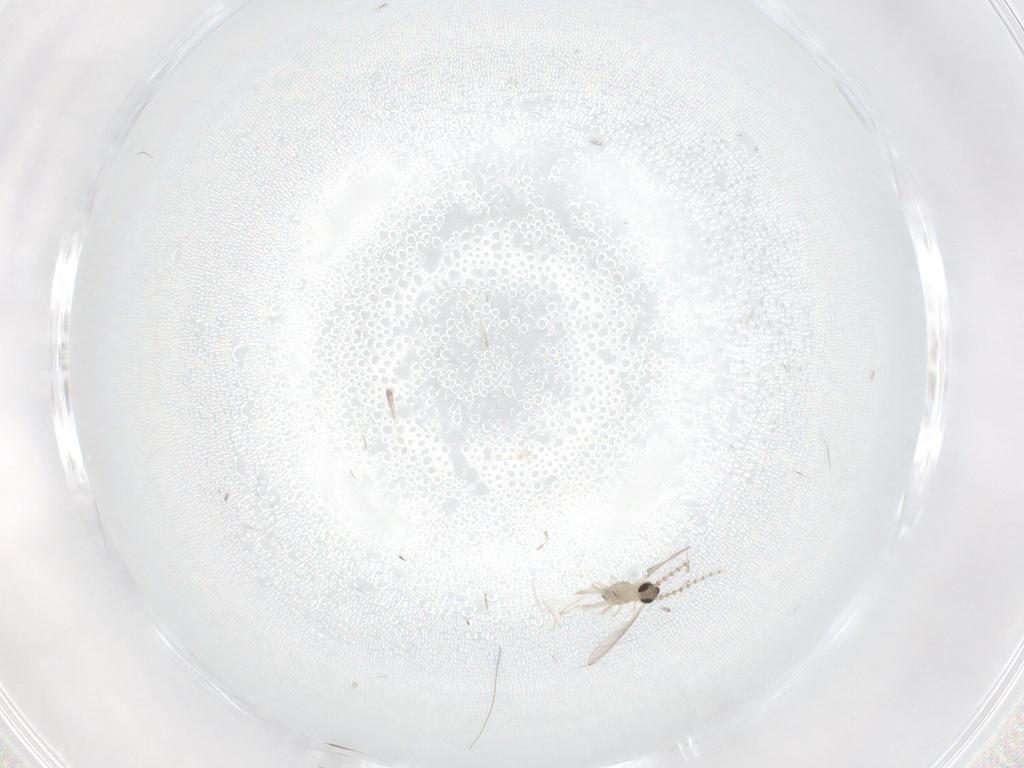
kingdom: Animalia
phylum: Arthropoda
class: Insecta
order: Diptera
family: Cecidomyiidae
